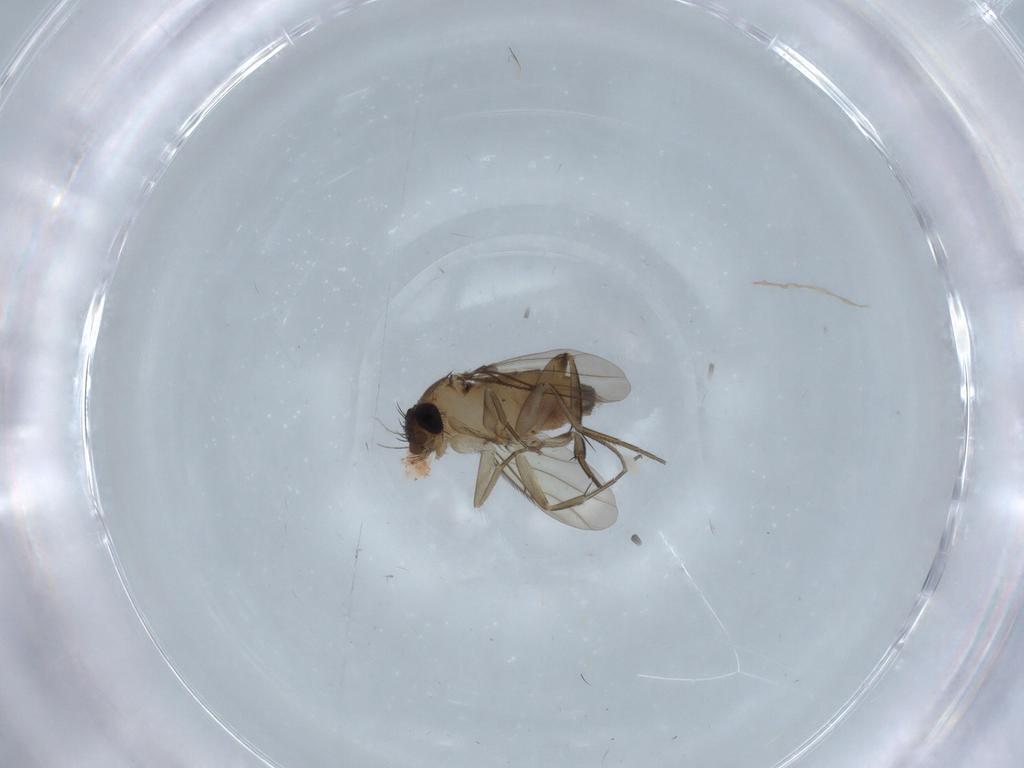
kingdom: Animalia
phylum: Arthropoda
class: Insecta
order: Diptera
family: Phoridae
